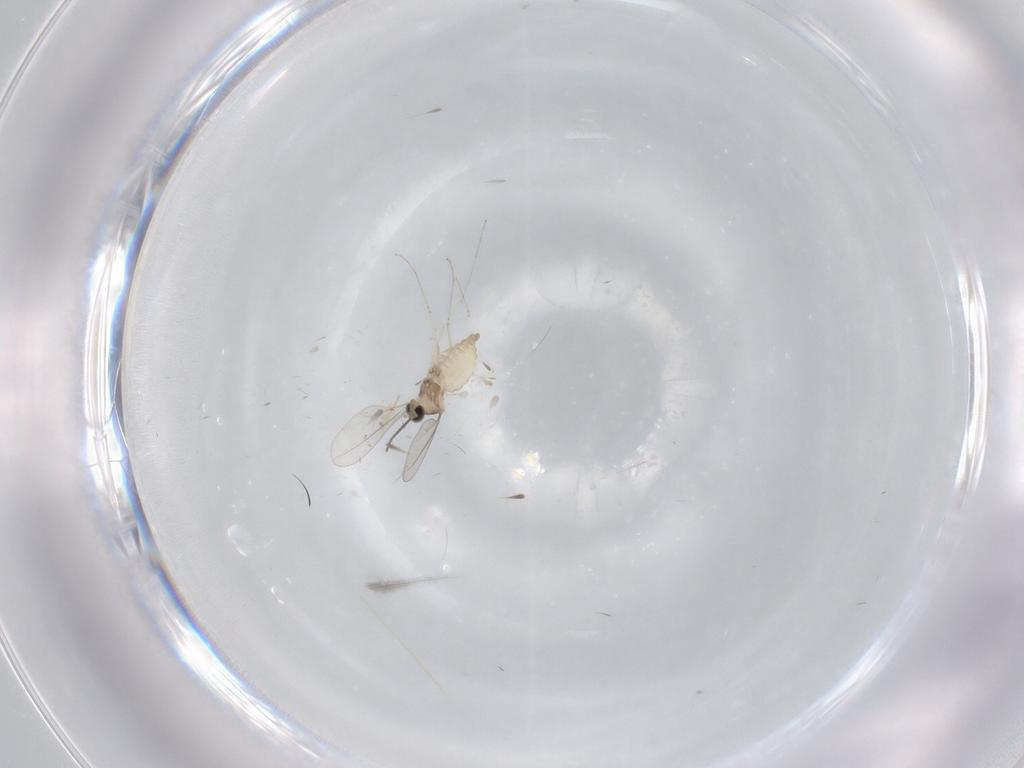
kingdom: Animalia
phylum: Arthropoda
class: Insecta
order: Diptera
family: Cecidomyiidae
